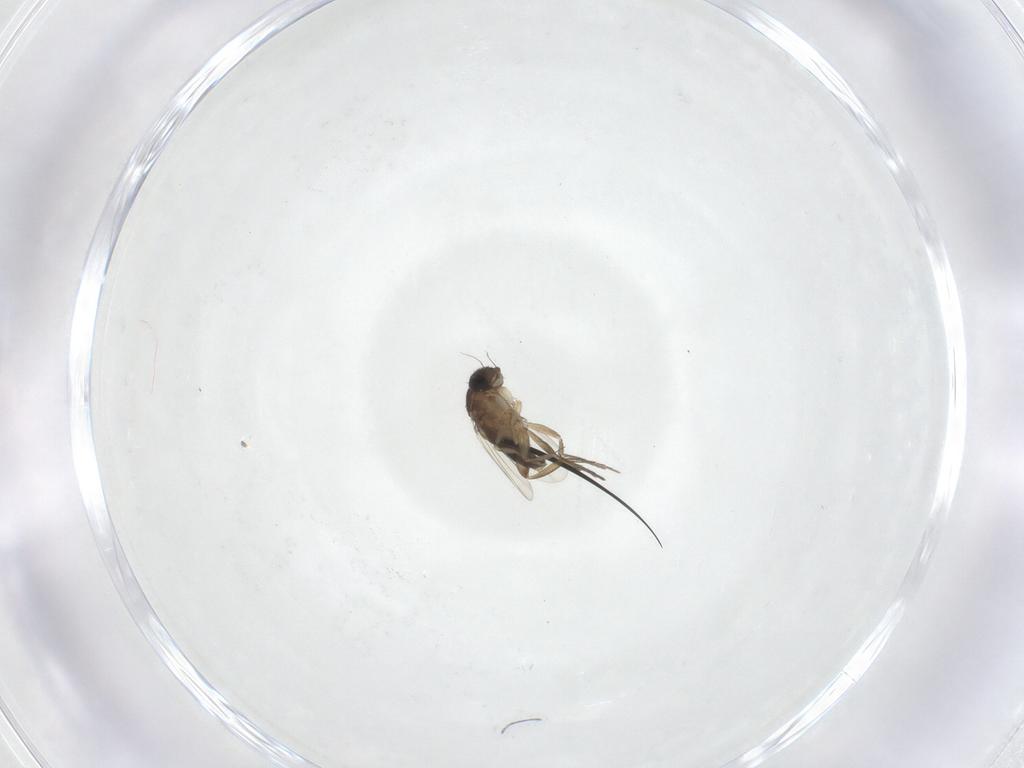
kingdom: Animalia
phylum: Arthropoda
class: Insecta
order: Diptera
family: Phoridae
